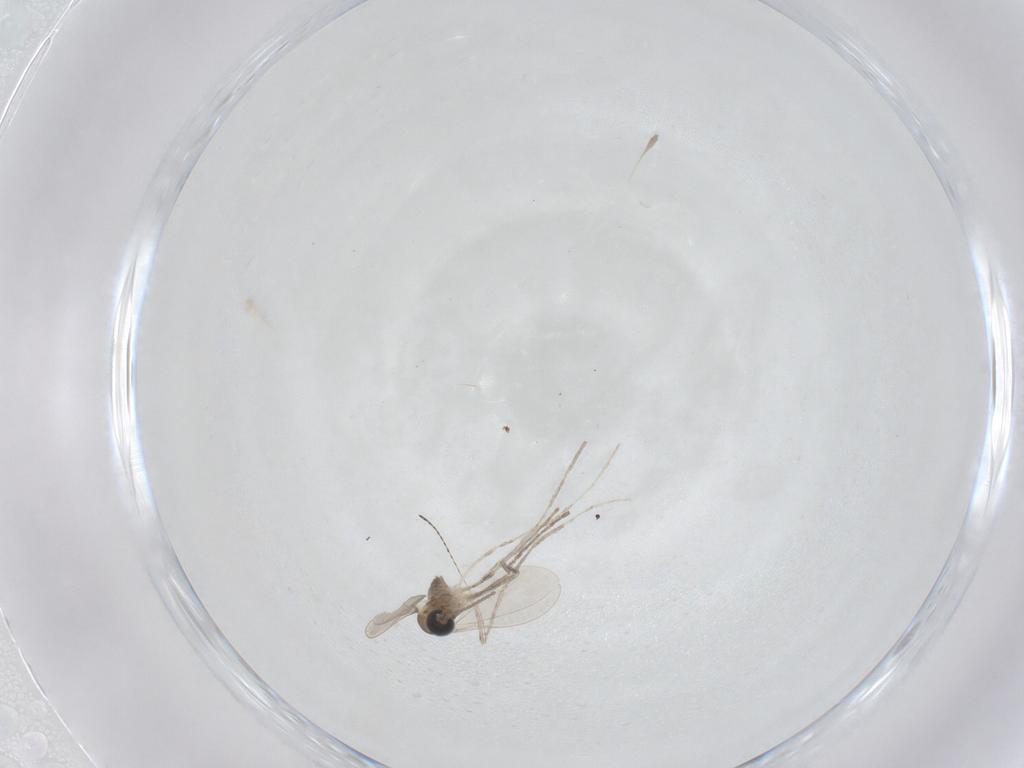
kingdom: Animalia
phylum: Arthropoda
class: Insecta
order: Diptera
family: Cecidomyiidae
